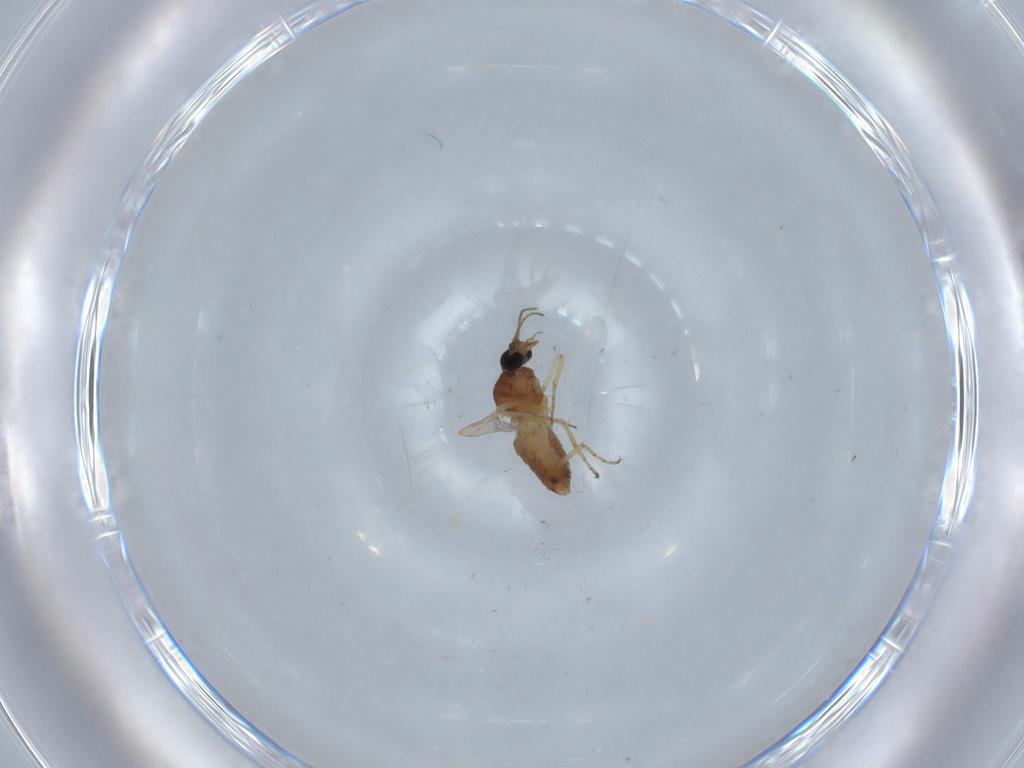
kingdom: Animalia
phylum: Arthropoda
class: Insecta
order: Diptera
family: Ceratopogonidae
